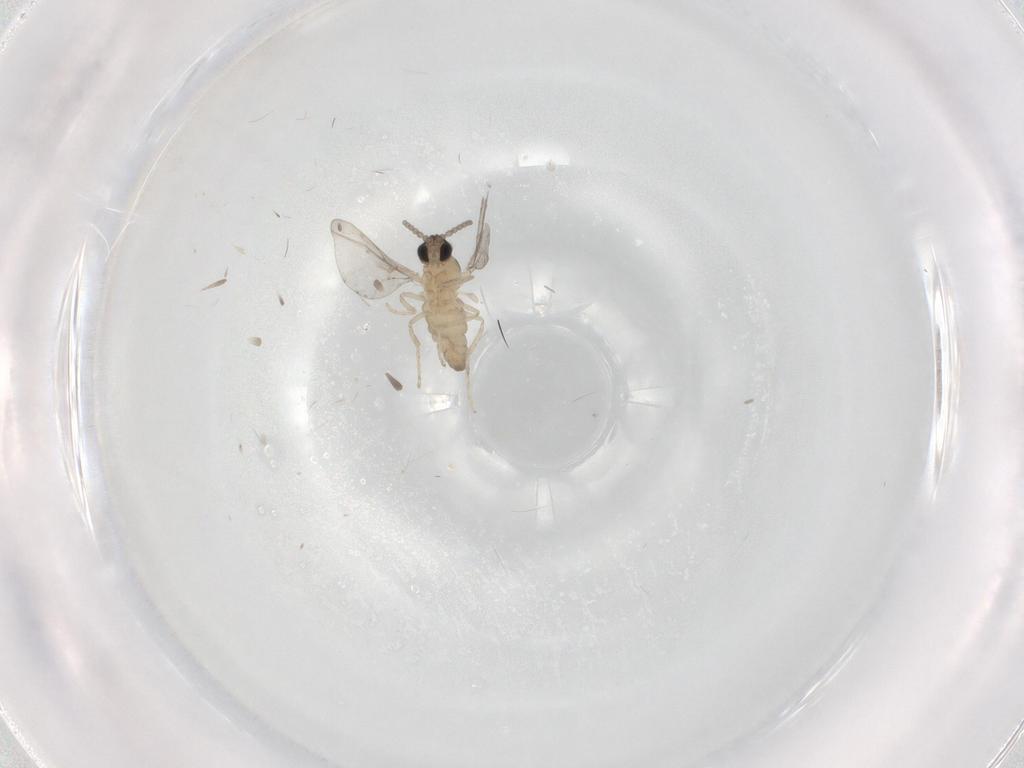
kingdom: Animalia
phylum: Arthropoda
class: Insecta
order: Diptera
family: Cecidomyiidae
